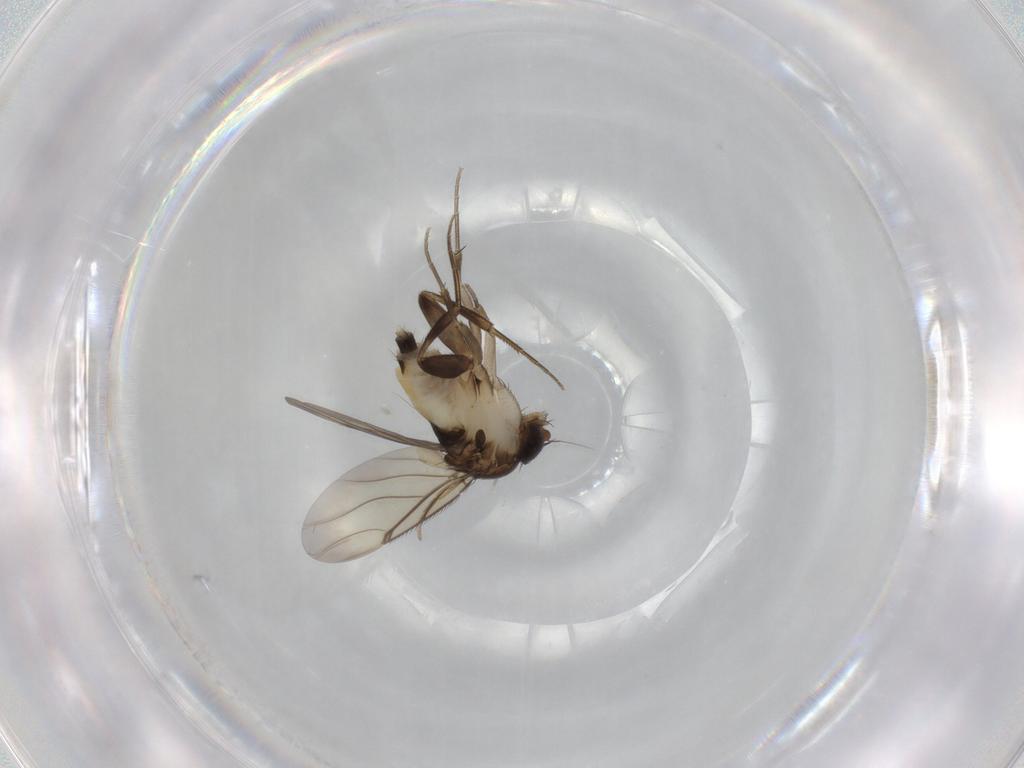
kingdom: Animalia
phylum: Arthropoda
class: Insecta
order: Diptera
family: Phoridae
